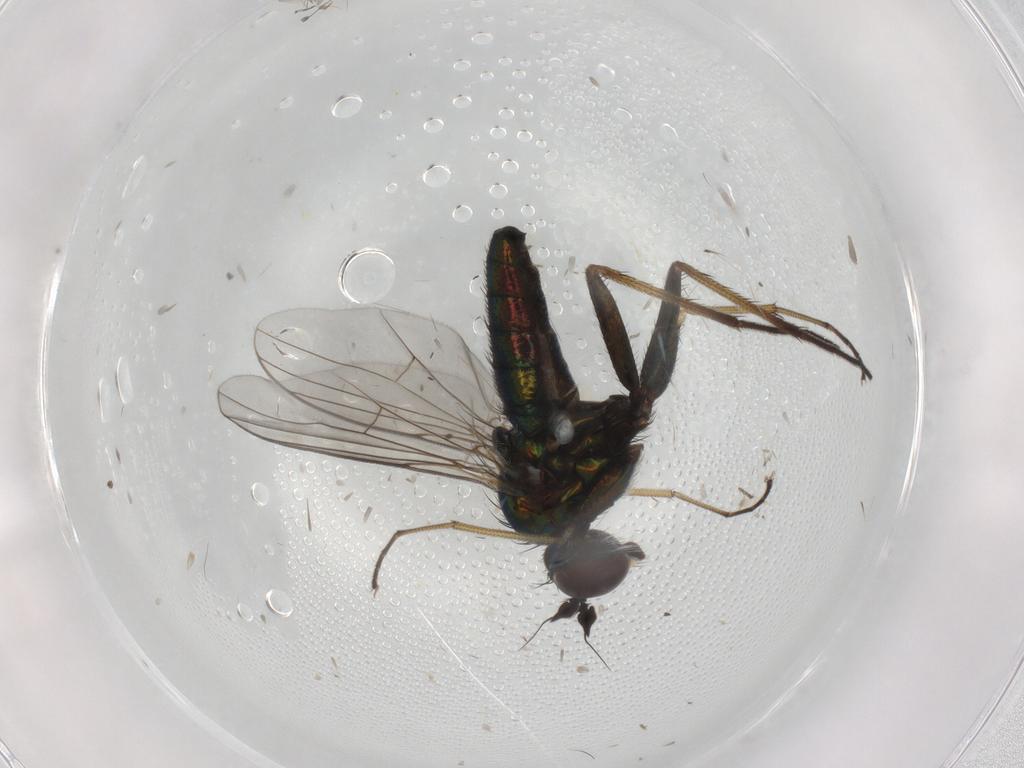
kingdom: Animalia
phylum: Arthropoda
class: Insecta
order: Diptera
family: Dolichopodidae
